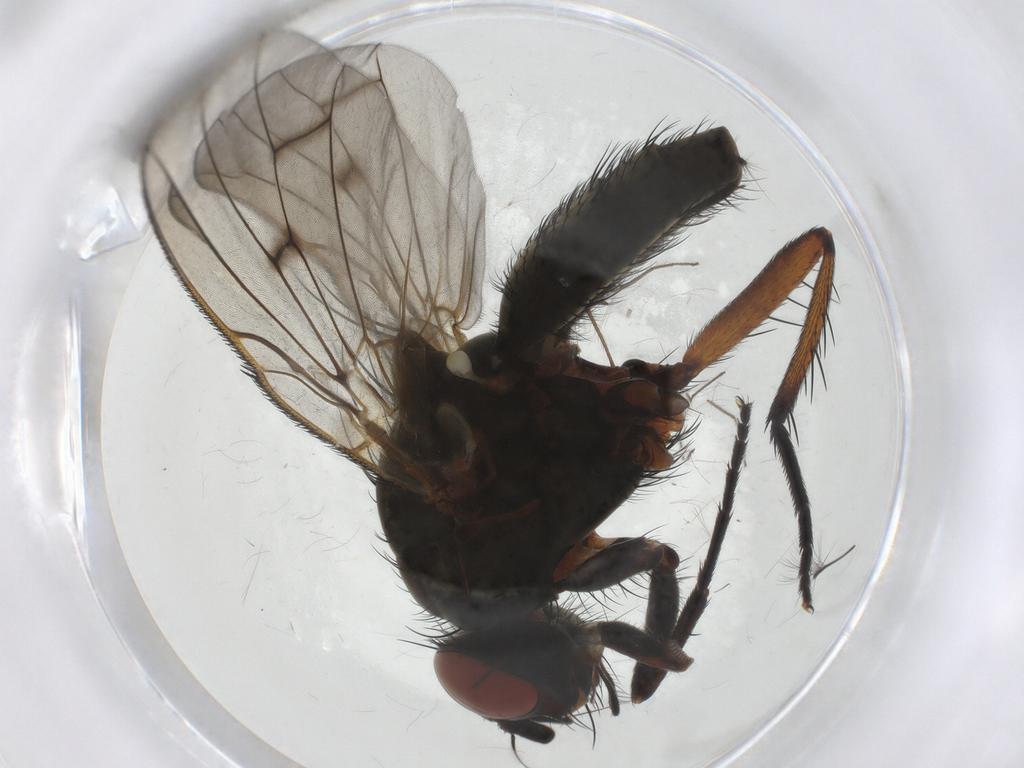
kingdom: Animalia
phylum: Arthropoda
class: Insecta
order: Diptera
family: Anthomyiidae
